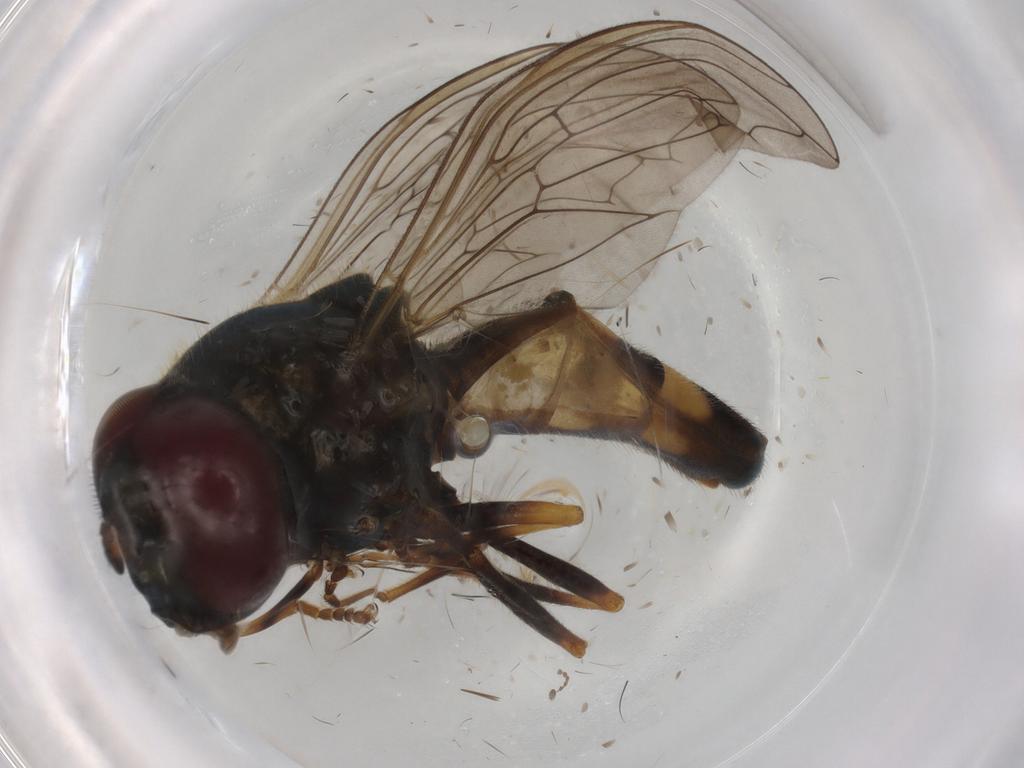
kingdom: Animalia
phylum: Arthropoda
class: Insecta
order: Diptera
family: Syrphidae
